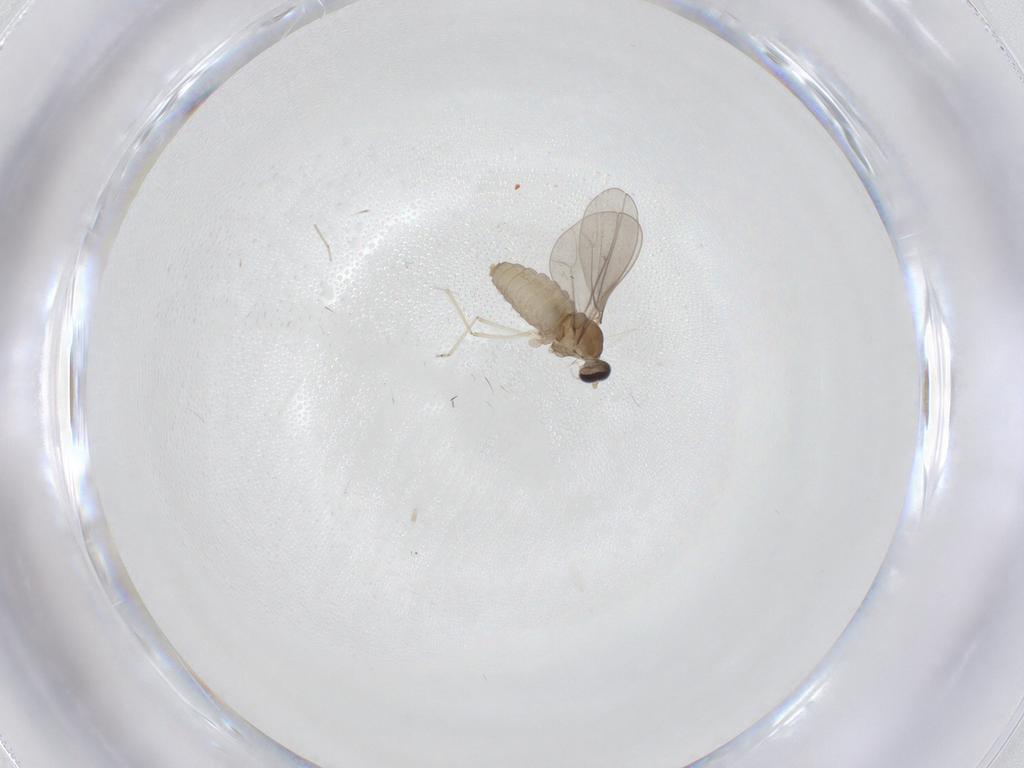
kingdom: Animalia
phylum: Arthropoda
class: Insecta
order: Diptera
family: Cecidomyiidae
